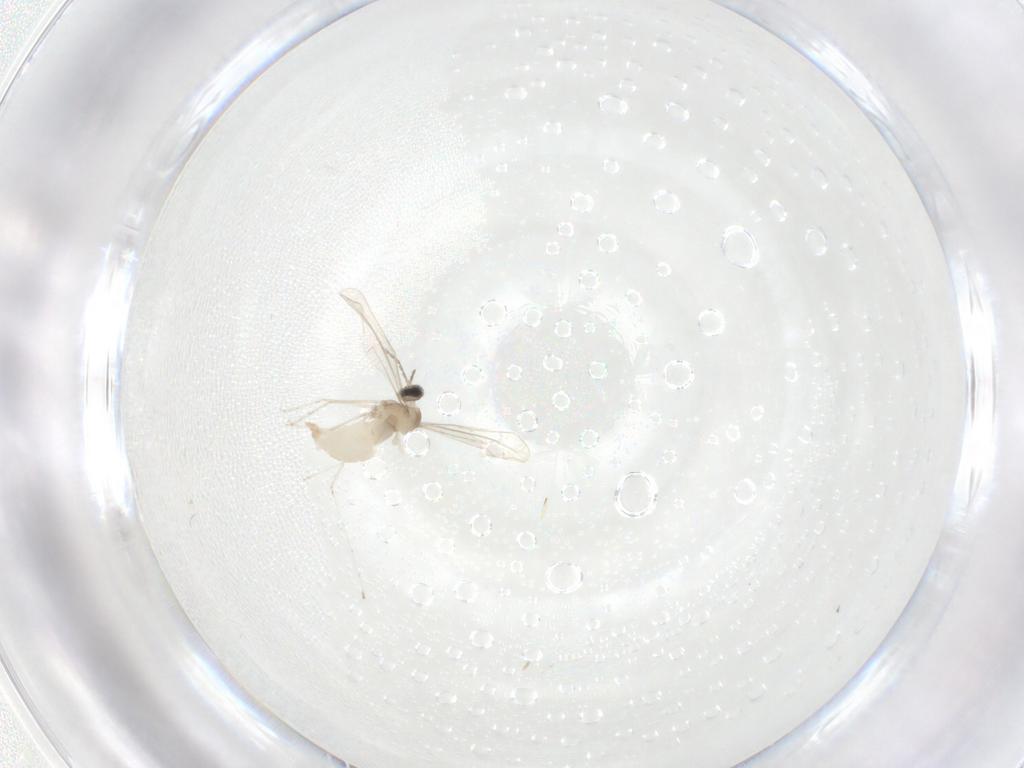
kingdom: Animalia
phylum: Arthropoda
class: Insecta
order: Diptera
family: Cecidomyiidae
